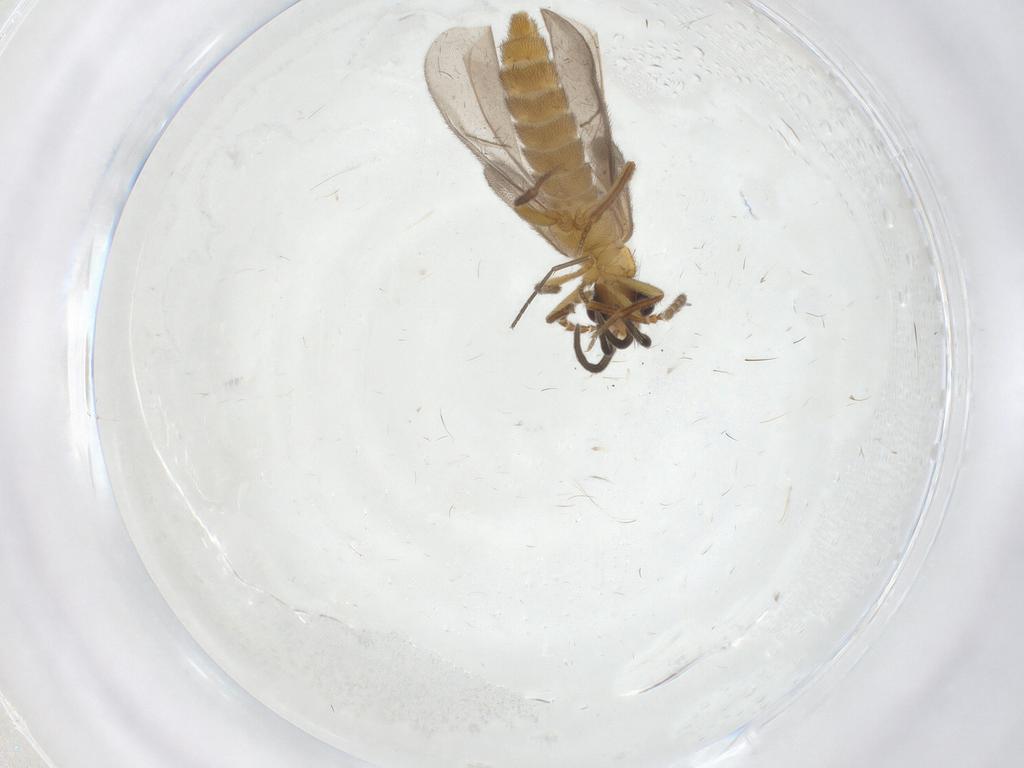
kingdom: Animalia
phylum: Arthropoda
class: Insecta
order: Coleoptera
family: Omethidae
